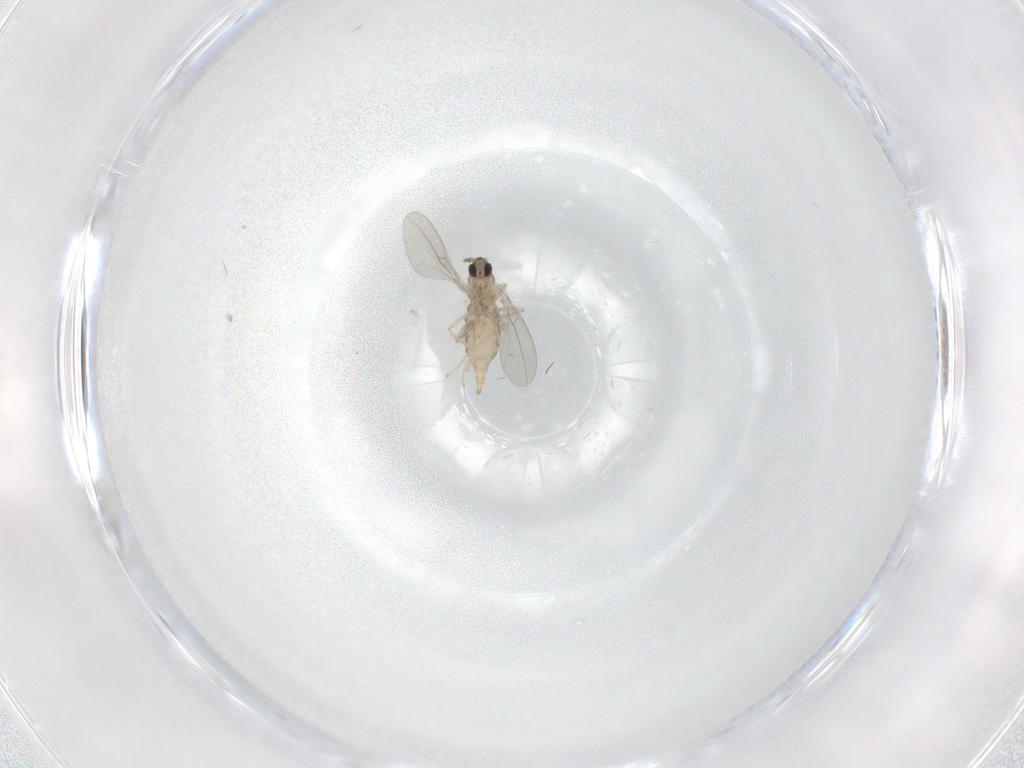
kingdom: Animalia
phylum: Arthropoda
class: Insecta
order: Diptera
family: Cecidomyiidae
